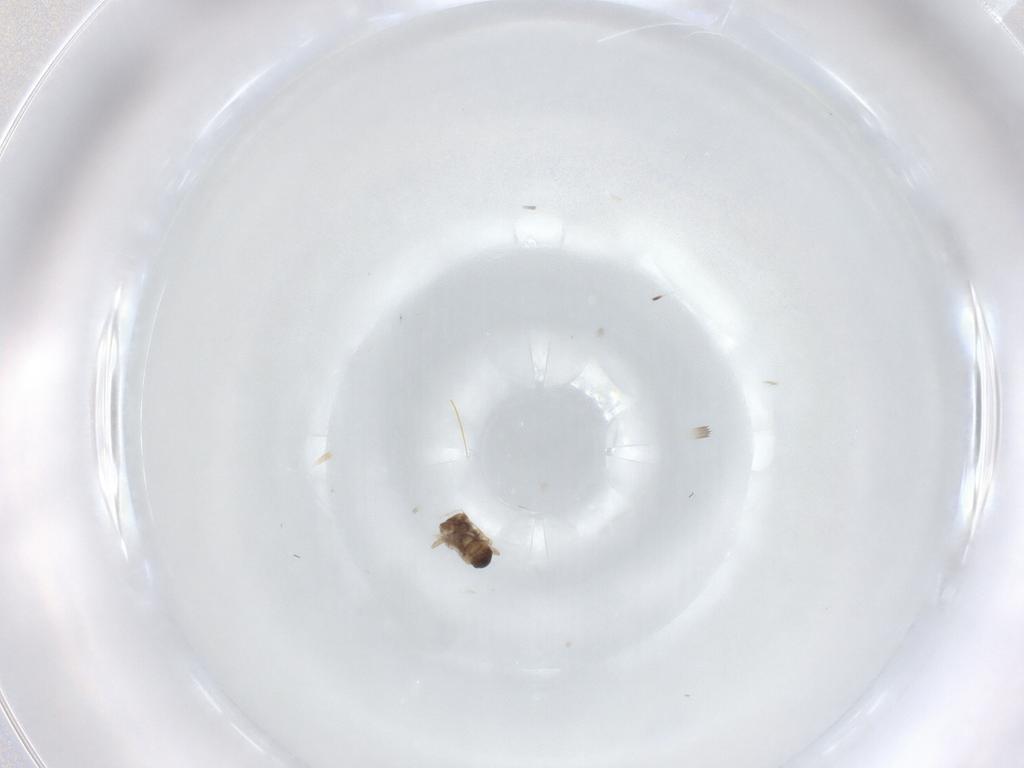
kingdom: Animalia
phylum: Arthropoda
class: Insecta
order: Diptera
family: Cecidomyiidae
